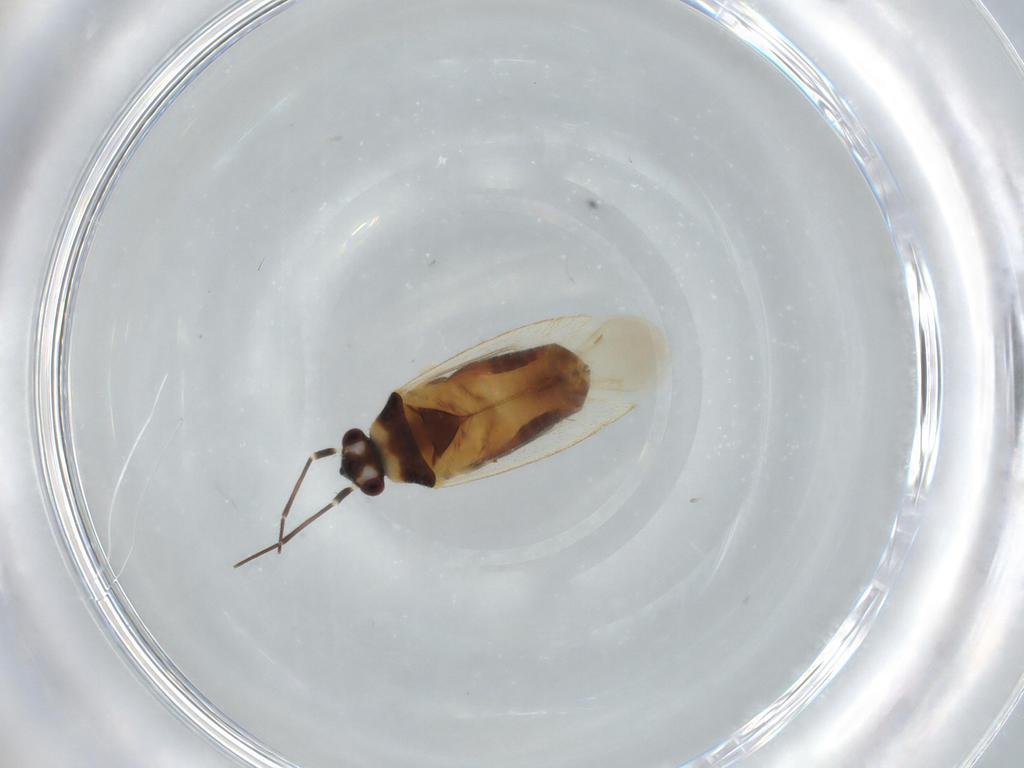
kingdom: Animalia
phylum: Arthropoda
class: Insecta
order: Hemiptera
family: Miridae
